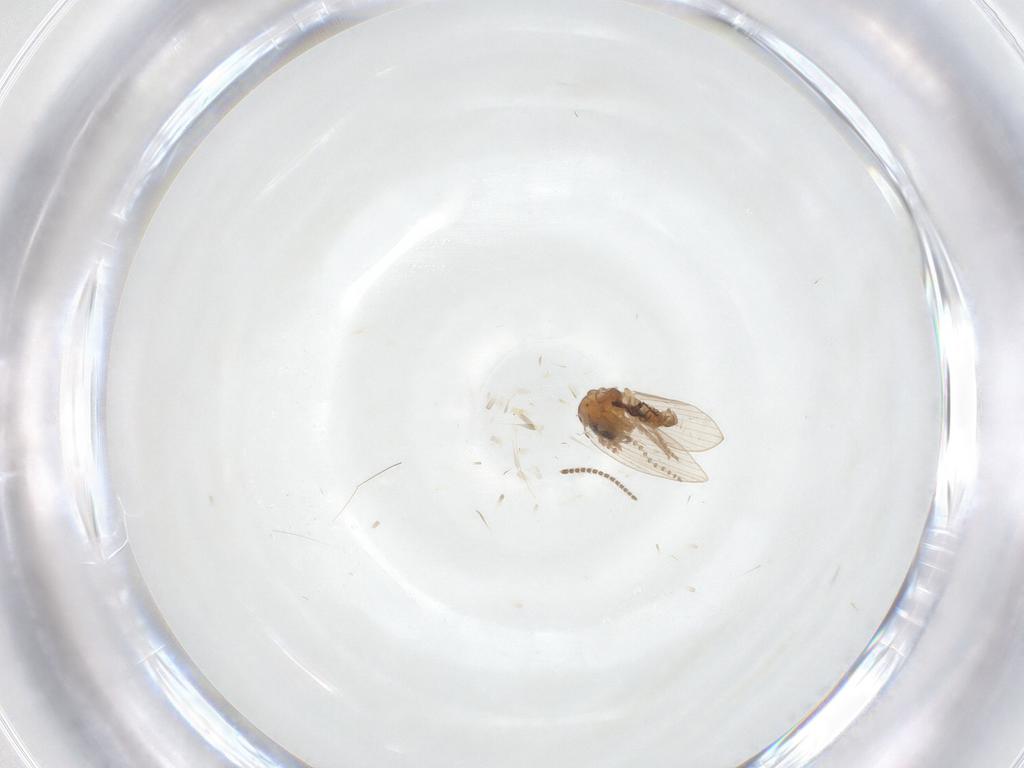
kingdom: Animalia
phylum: Arthropoda
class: Insecta
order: Diptera
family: Psychodidae
